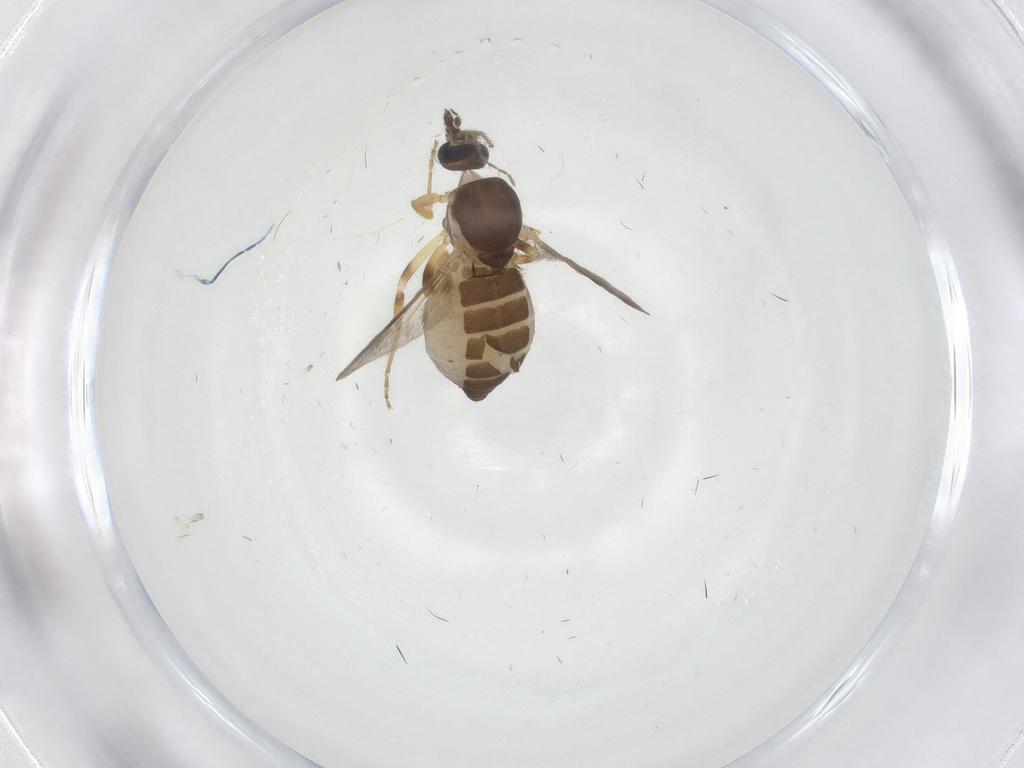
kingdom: Animalia
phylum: Arthropoda
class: Insecta
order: Diptera
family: Ceratopogonidae
